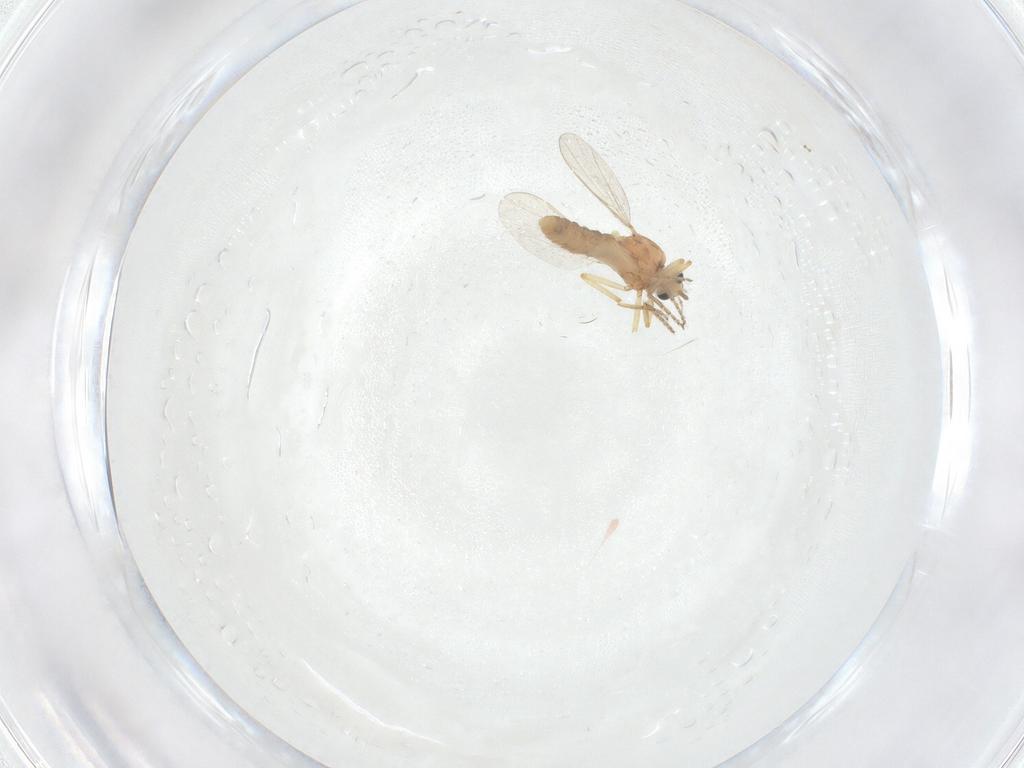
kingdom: Animalia
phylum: Arthropoda
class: Insecta
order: Diptera
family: Ceratopogonidae
